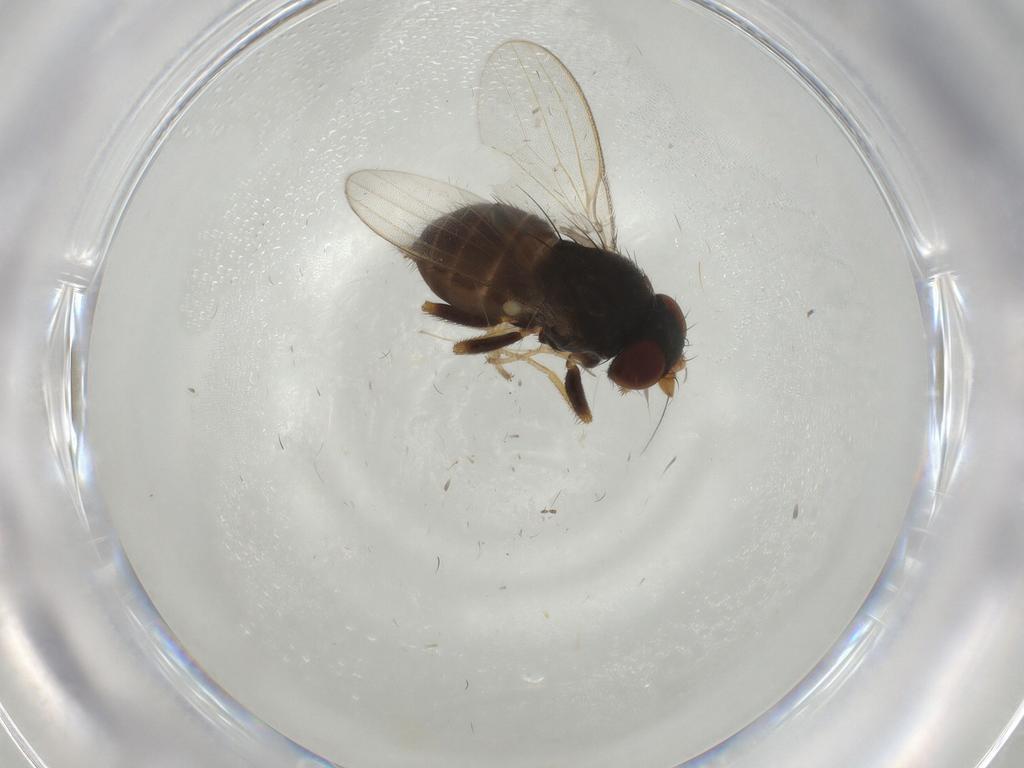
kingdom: Animalia
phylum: Arthropoda
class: Insecta
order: Diptera
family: Milichiidae
